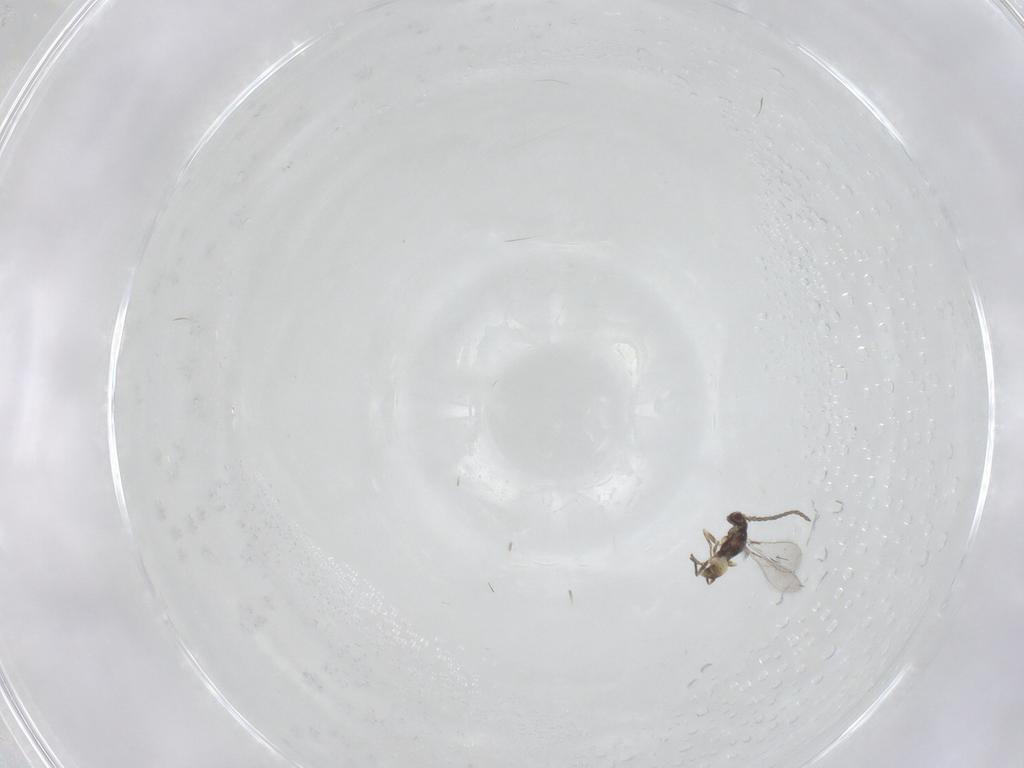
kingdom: Animalia
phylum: Arthropoda
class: Insecta
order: Hymenoptera
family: Mymaridae
